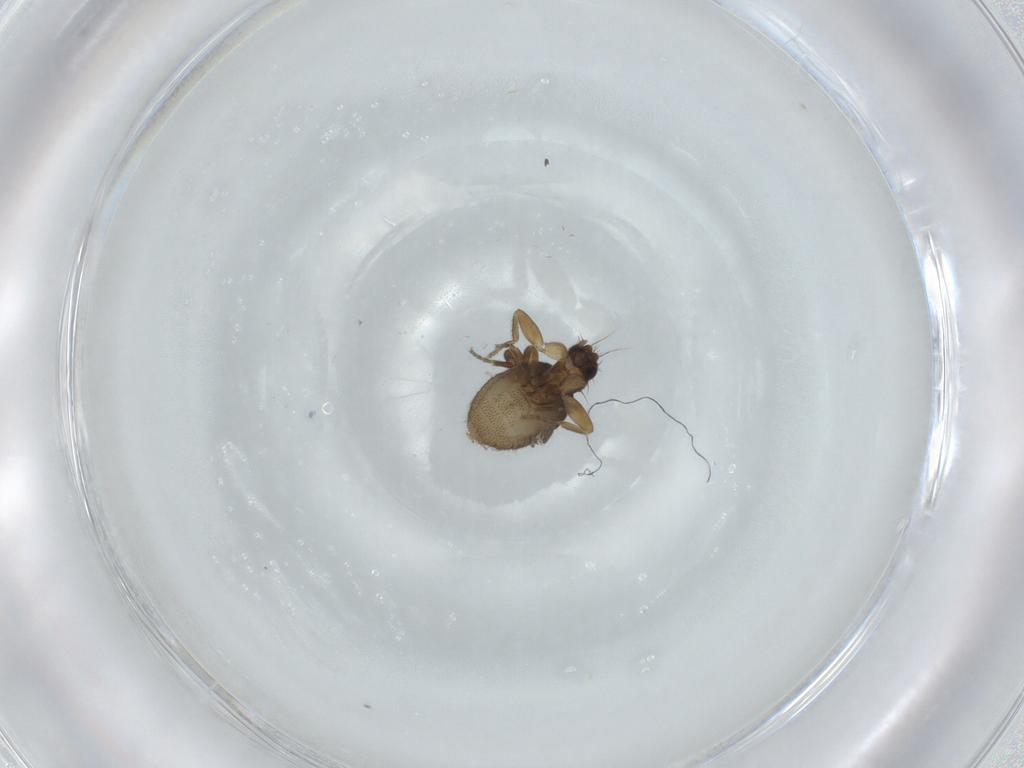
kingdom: Animalia
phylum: Arthropoda
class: Insecta
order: Diptera
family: Phoridae
